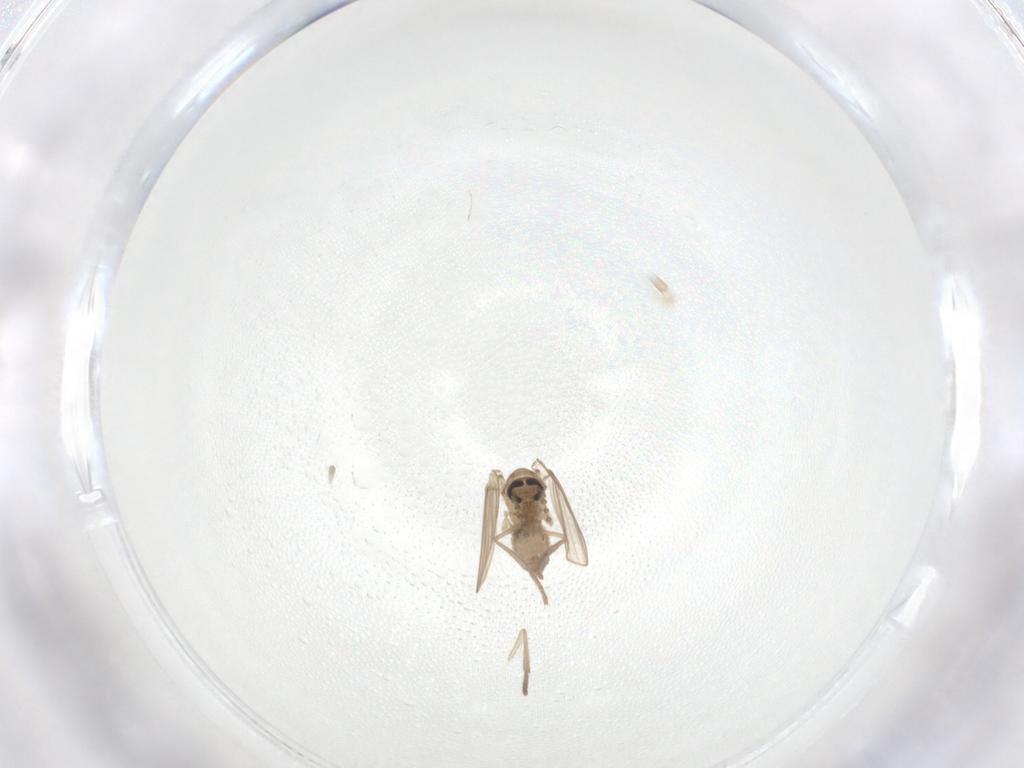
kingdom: Animalia
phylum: Arthropoda
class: Insecta
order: Diptera
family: Psychodidae
